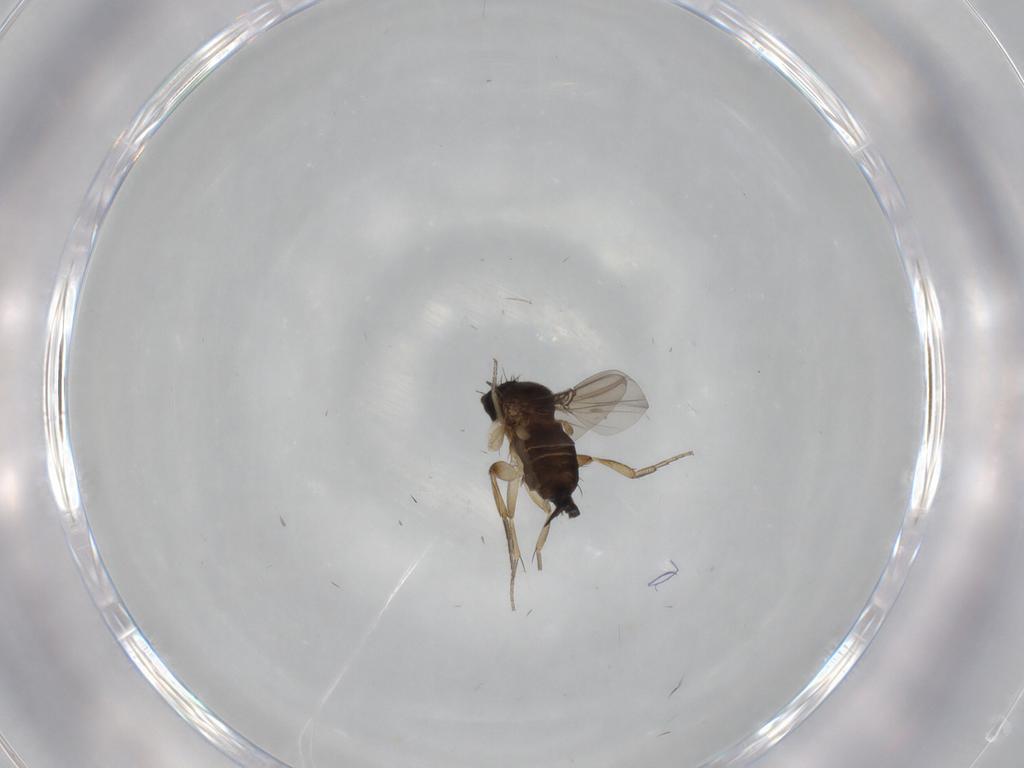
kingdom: Animalia
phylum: Arthropoda
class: Insecta
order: Diptera
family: Phoridae
